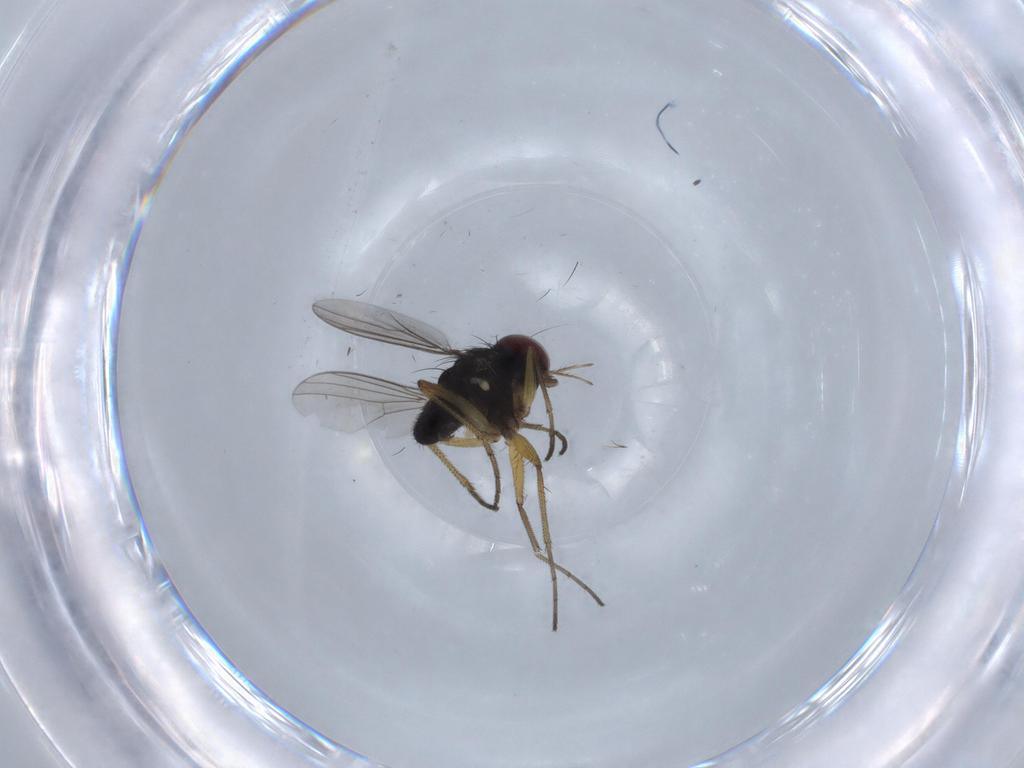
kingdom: Animalia
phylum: Arthropoda
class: Insecta
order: Diptera
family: Dolichopodidae
